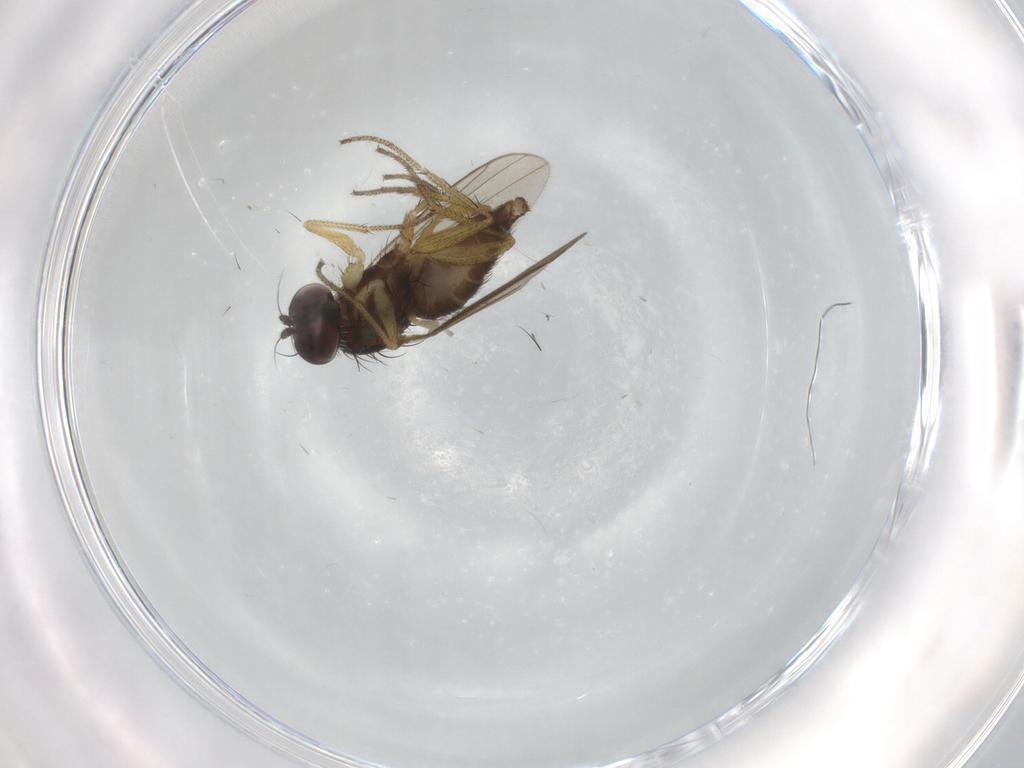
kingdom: Animalia
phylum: Arthropoda
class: Insecta
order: Diptera
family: Dolichopodidae
